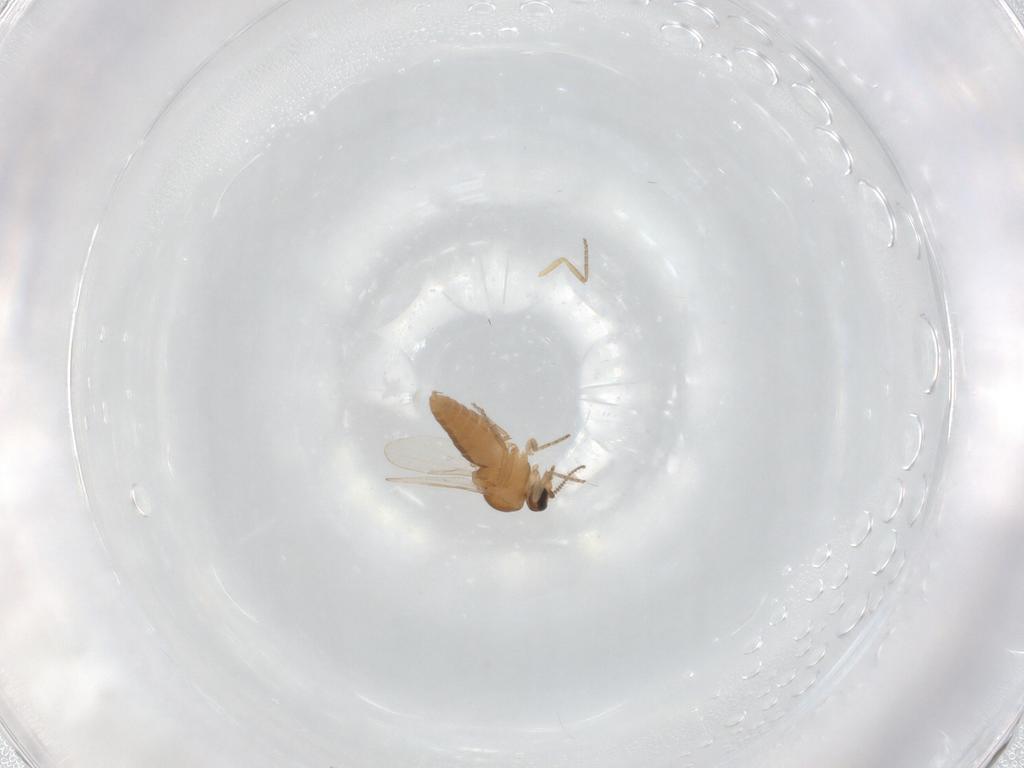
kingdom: Animalia
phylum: Arthropoda
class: Insecta
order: Diptera
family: Ceratopogonidae
